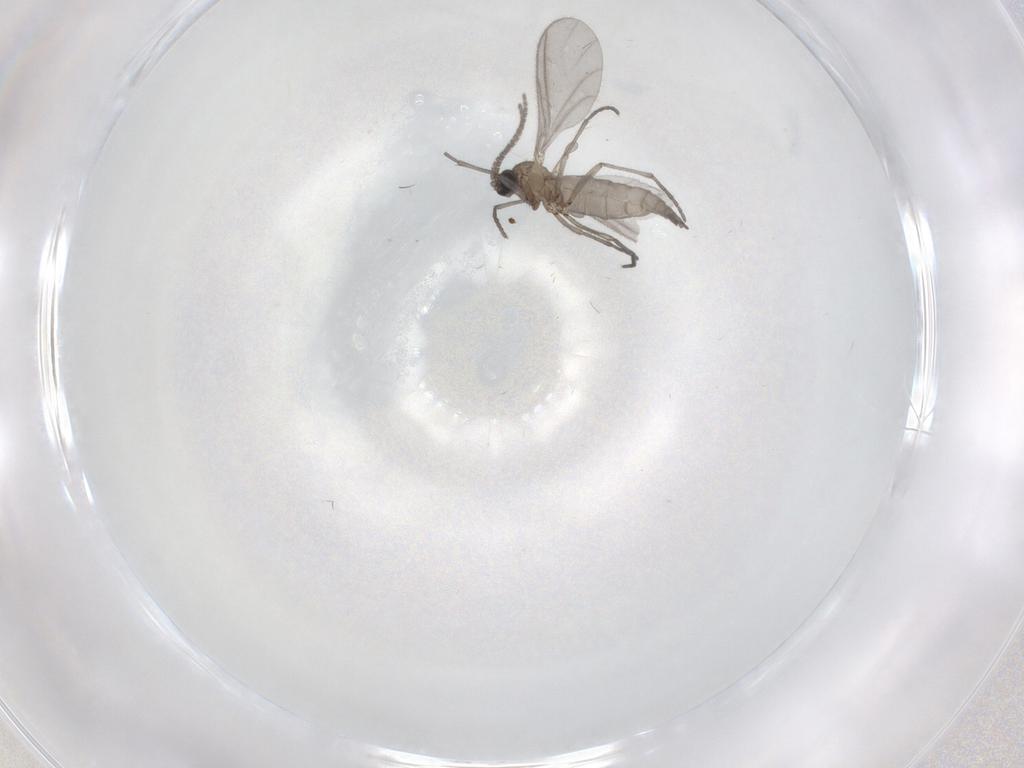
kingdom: Animalia
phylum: Arthropoda
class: Insecta
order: Diptera
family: Sciaridae
